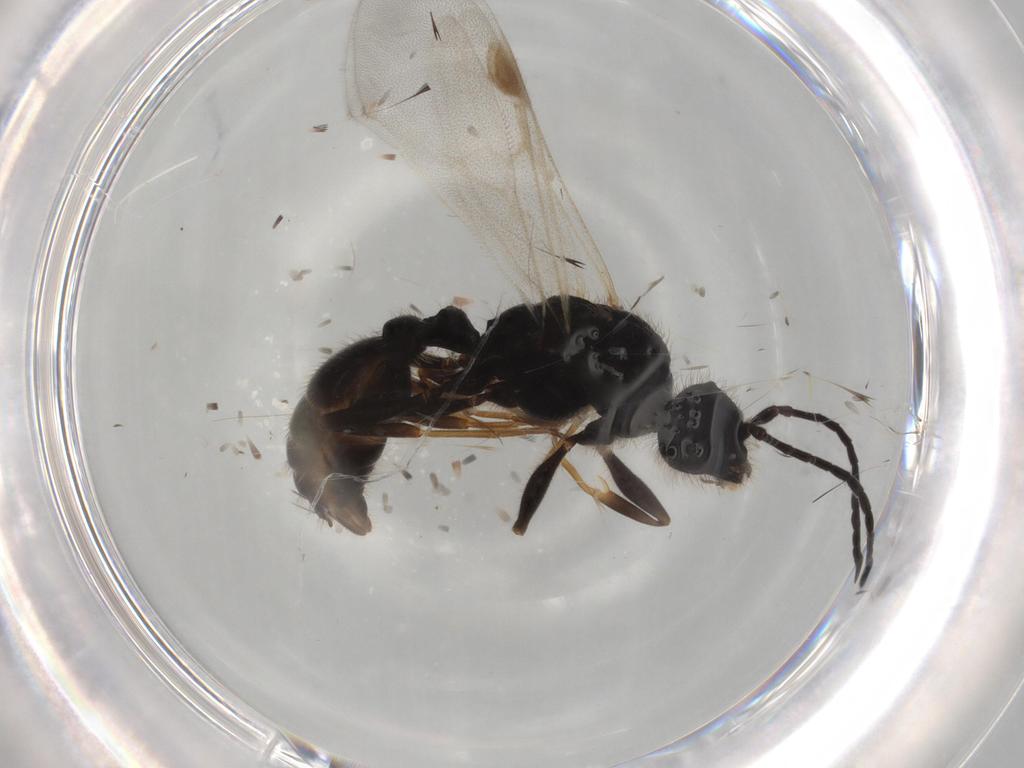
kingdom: Animalia
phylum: Arthropoda
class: Insecta
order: Hymenoptera
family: Formicidae
